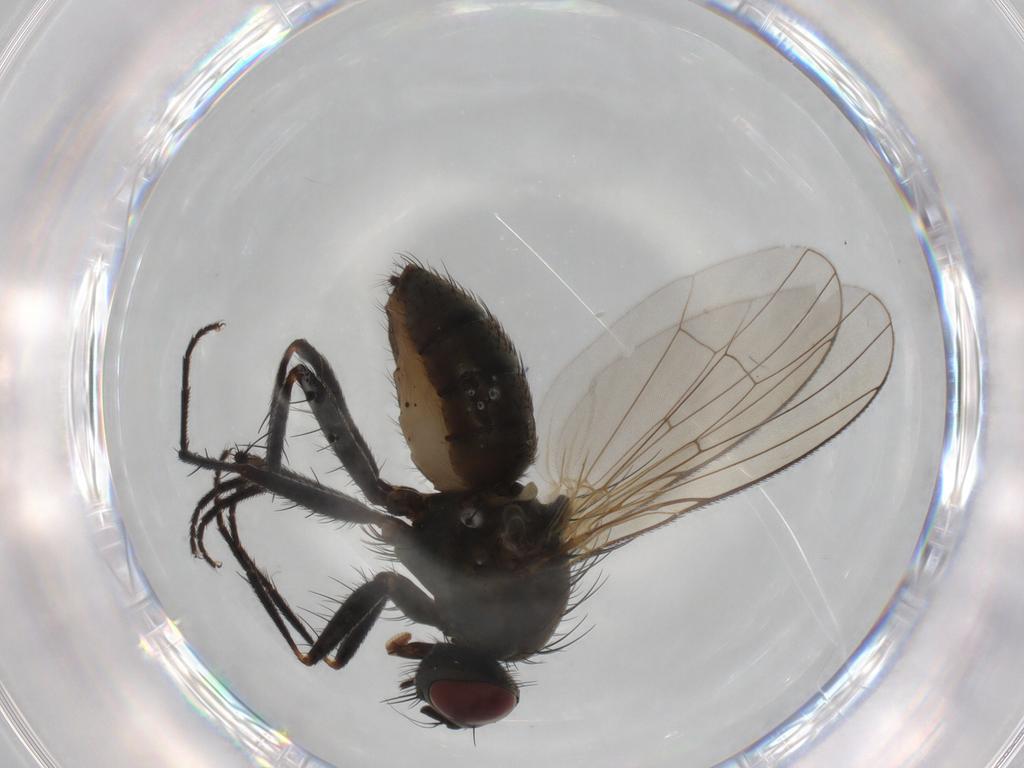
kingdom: Animalia
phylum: Arthropoda
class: Insecta
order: Diptera
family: Muscidae
